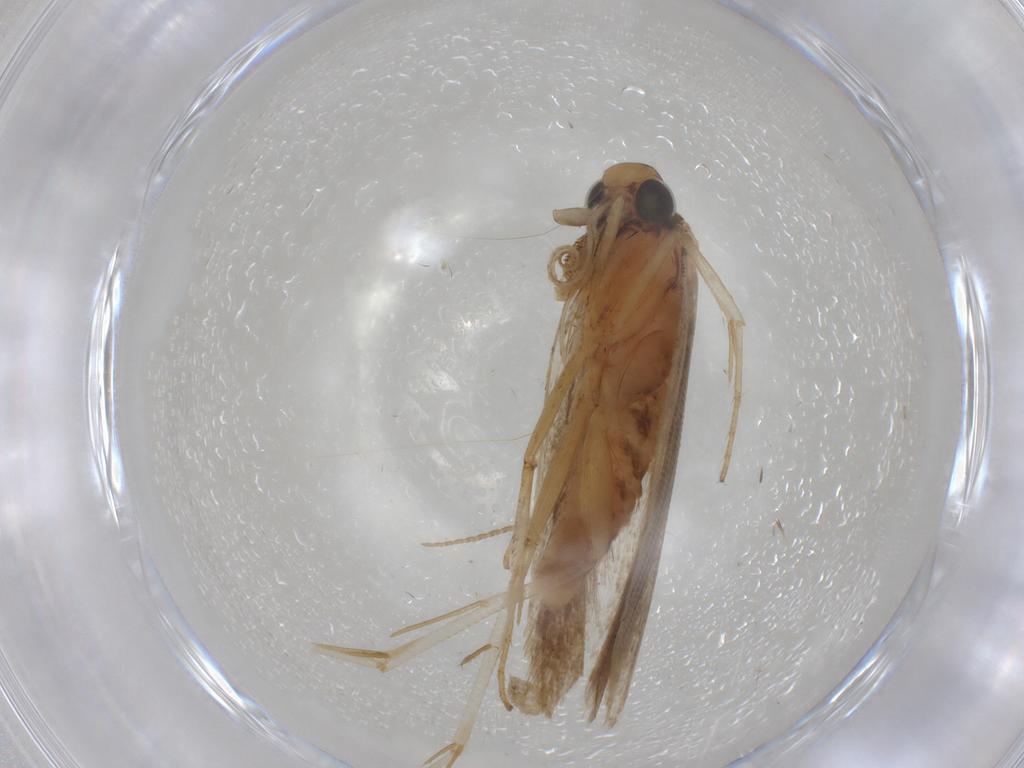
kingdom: Animalia
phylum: Arthropoda
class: Insecta
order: Lepidoptera
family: Gelechiidae
